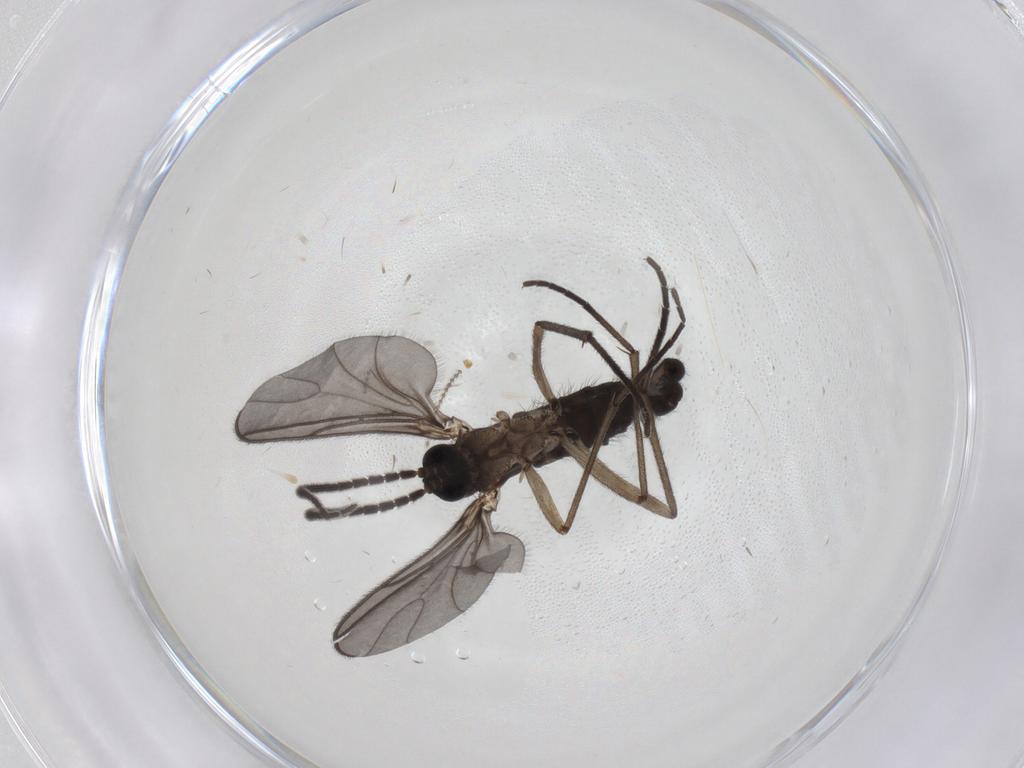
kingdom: Animalia
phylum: Arthropoda
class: Insecta
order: Diptera
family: Sciaridae
